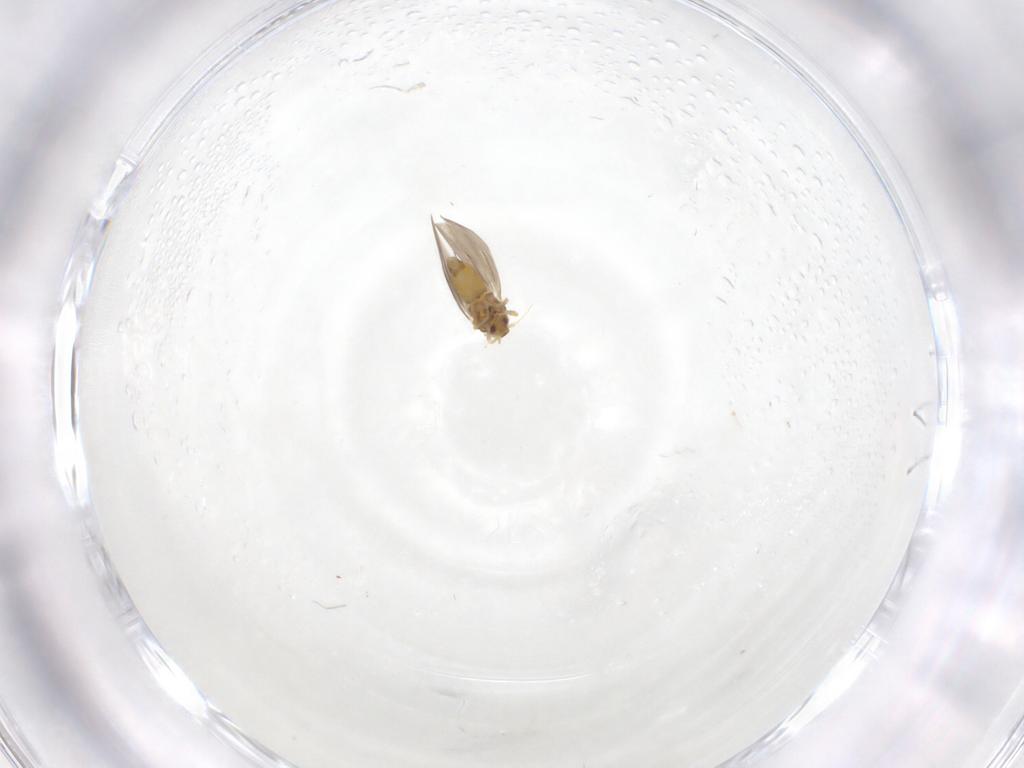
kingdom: Animalia
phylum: Arthropoda
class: Insecta
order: Hemiptera
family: Aleyrodidae
